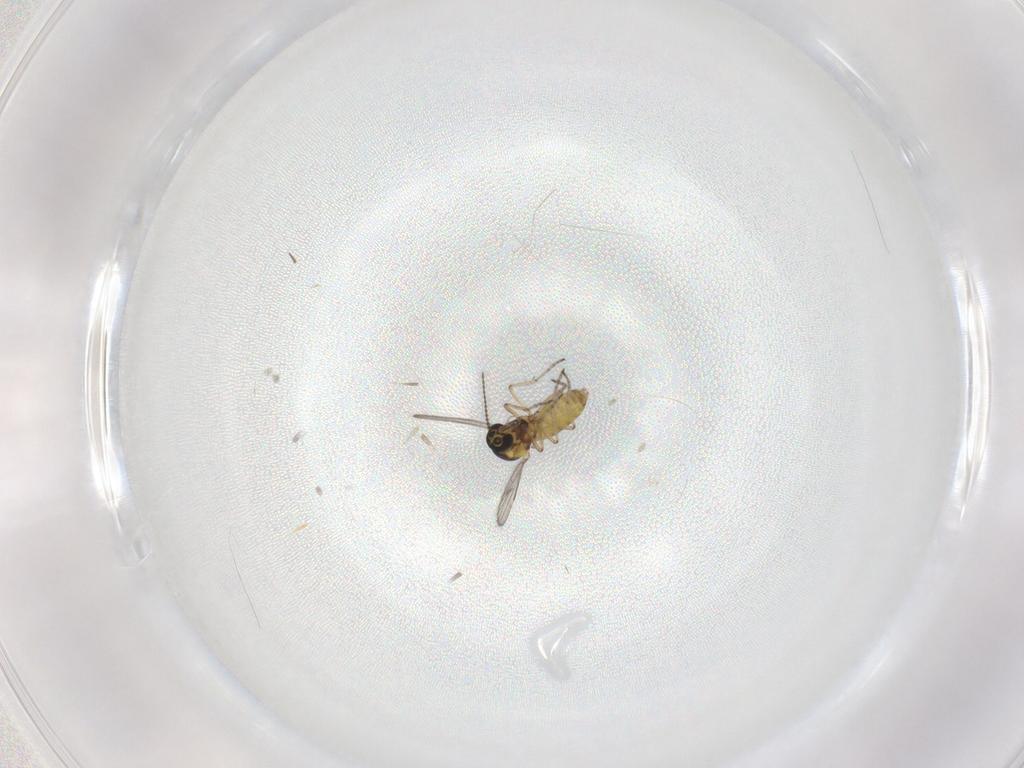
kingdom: Animalia
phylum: Arthropoda
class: Insecta
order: Diptera
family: Ceratopogonidae
